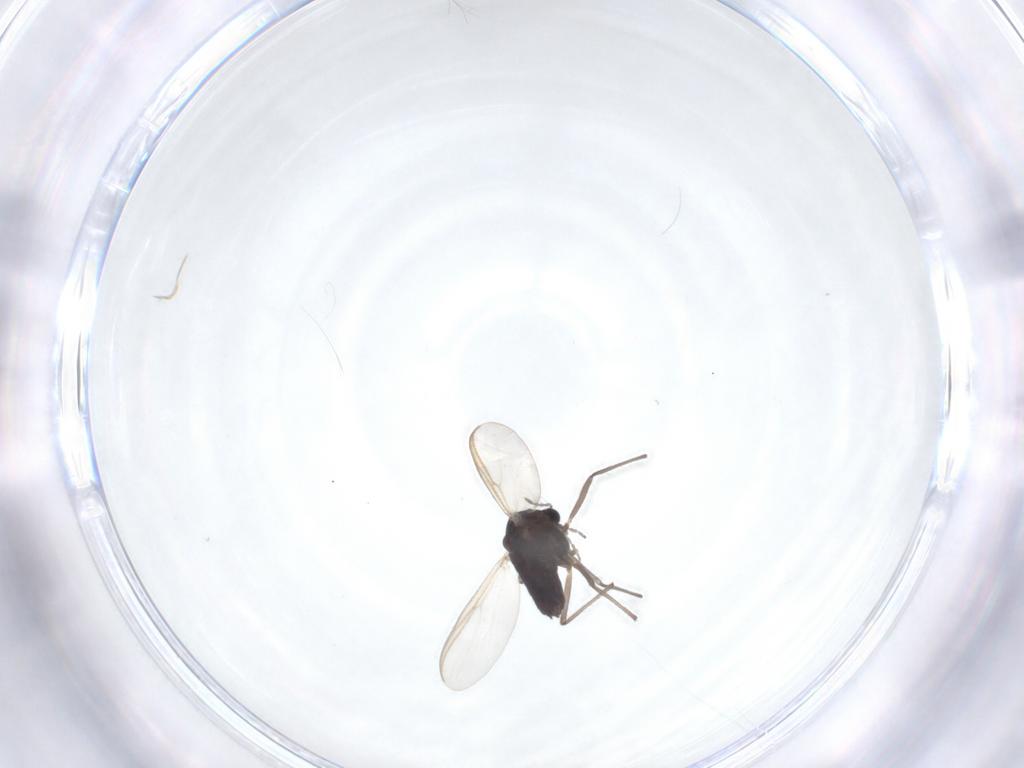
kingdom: Animalia
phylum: Arthropoda
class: Insecta
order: Diptera
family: Chironomidae
